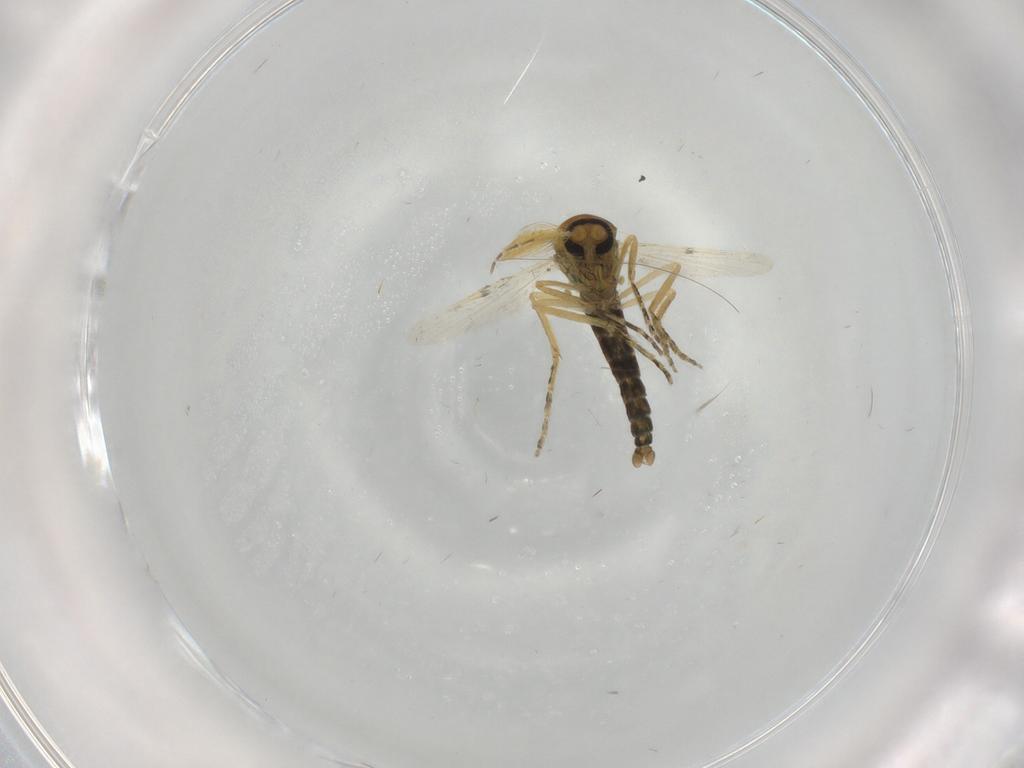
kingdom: Animalia
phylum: Arthropoda
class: Insecta
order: Diptera
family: Ceratopogonidae
